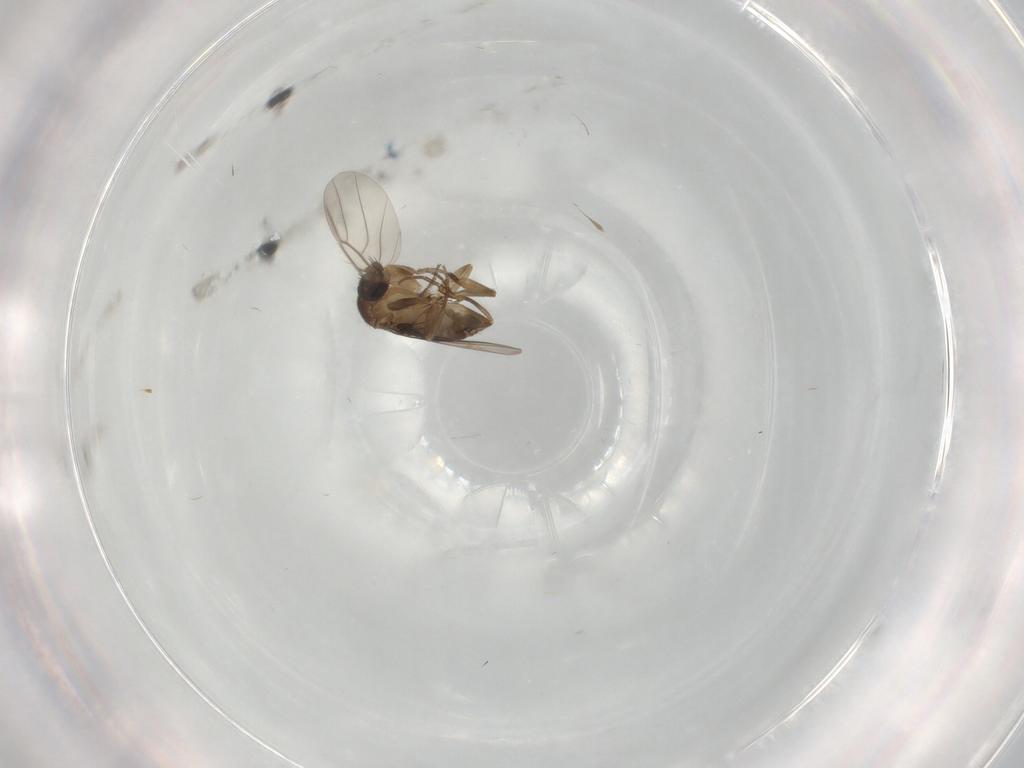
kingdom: Animalia
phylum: Arthropoda
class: Insecta
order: Diptera
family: Phoridae
